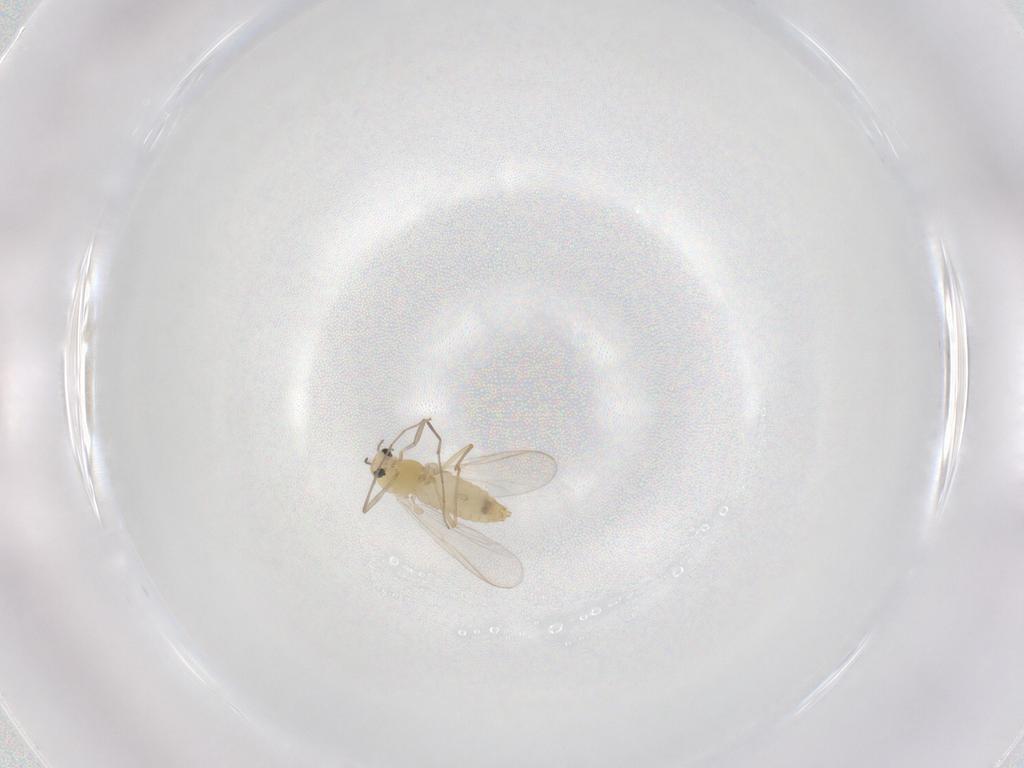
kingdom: Animalia
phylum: Arthropoda
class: Insecta
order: Diptera
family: Chironomidae
